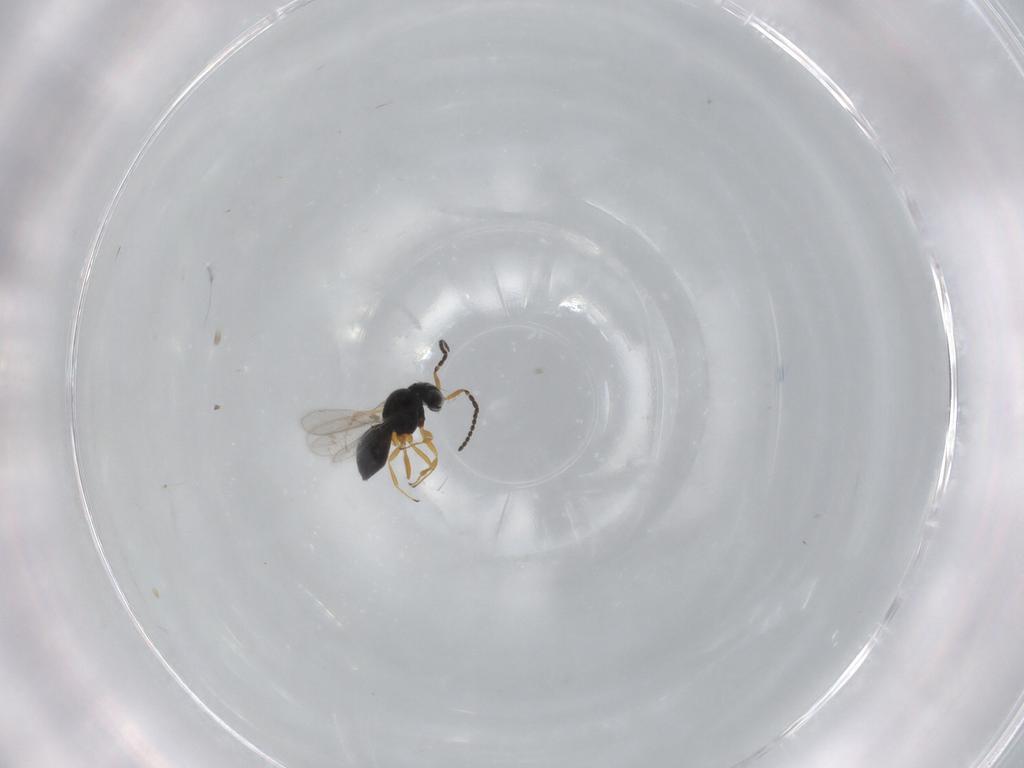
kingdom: Animalia
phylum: Arthropoda
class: Insecta
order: Hymenoptera
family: Scelionidae
